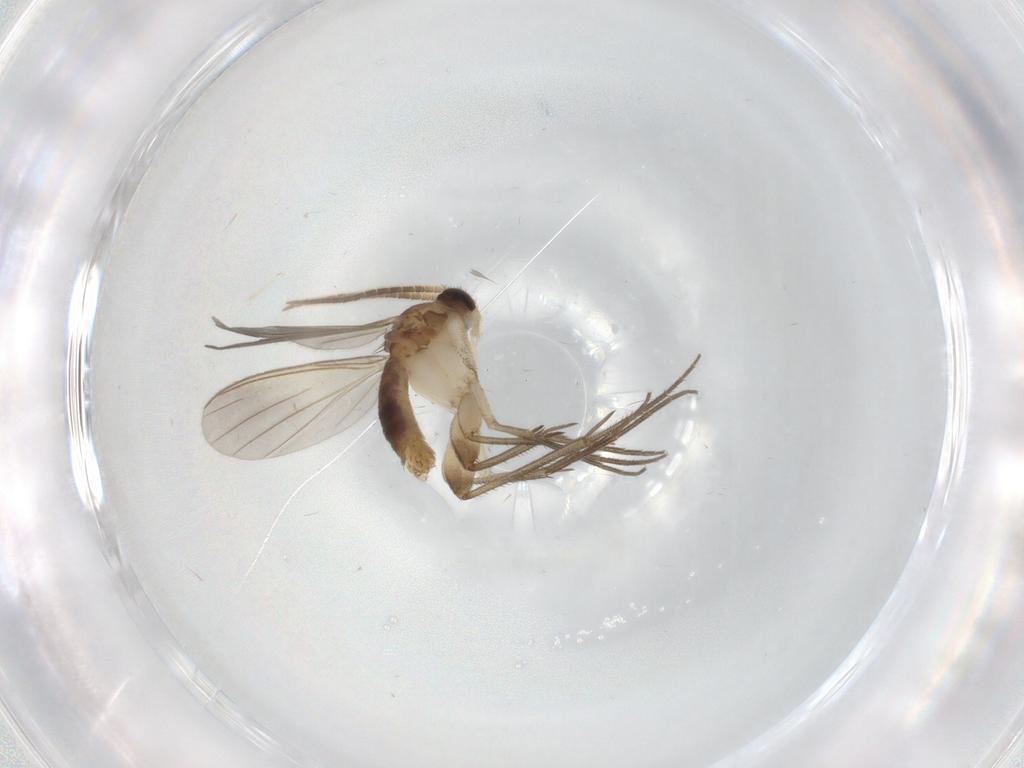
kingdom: Animalia
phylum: Arthropoda
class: Insecta
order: Diptera
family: Mycetophilidae
